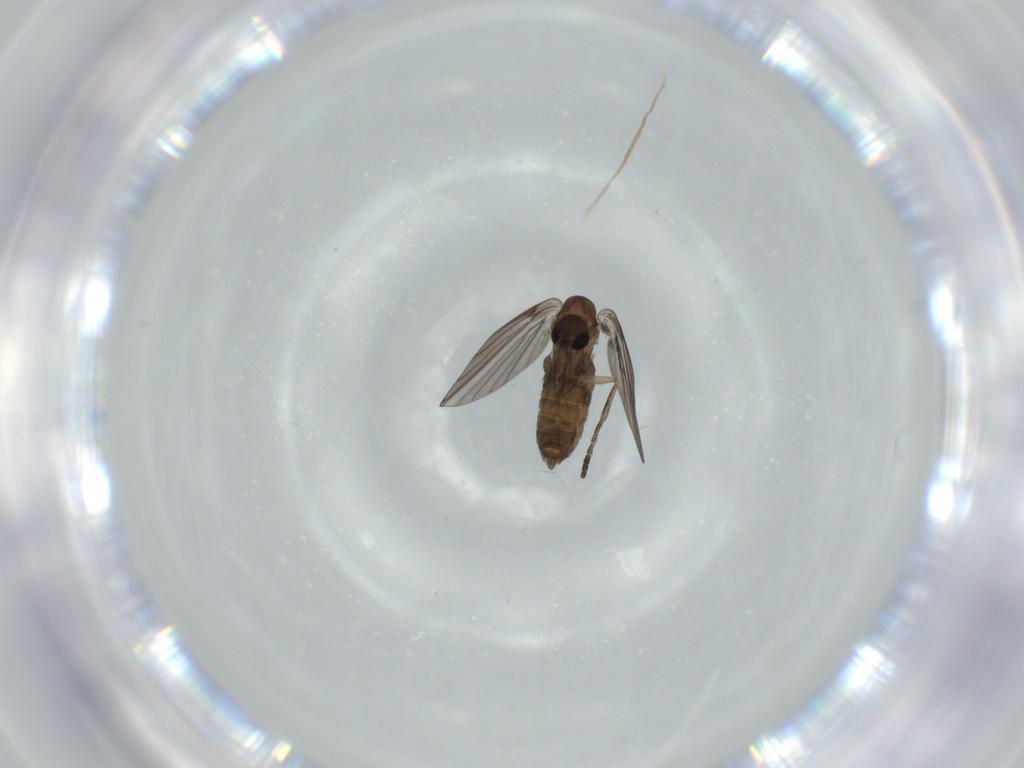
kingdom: Animalia
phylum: Arthropoda
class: Insecta
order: Diptera
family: Psychodidae
